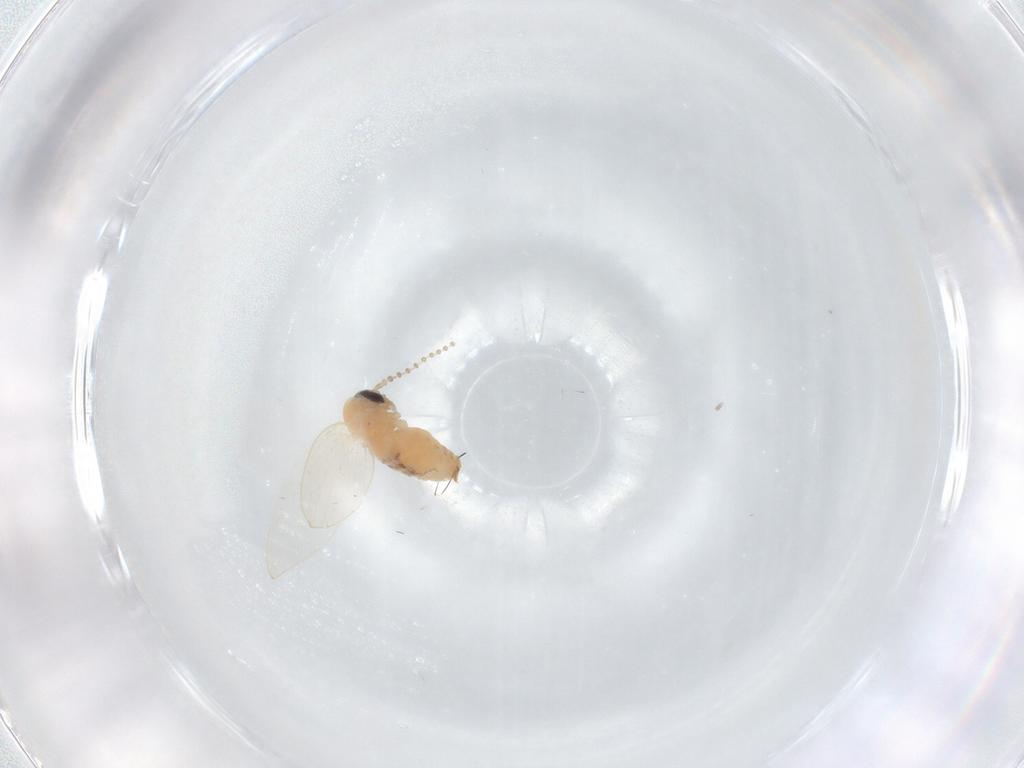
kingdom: Animalia
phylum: Arthropoda
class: Insecta
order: Diptera
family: Psychodidae
